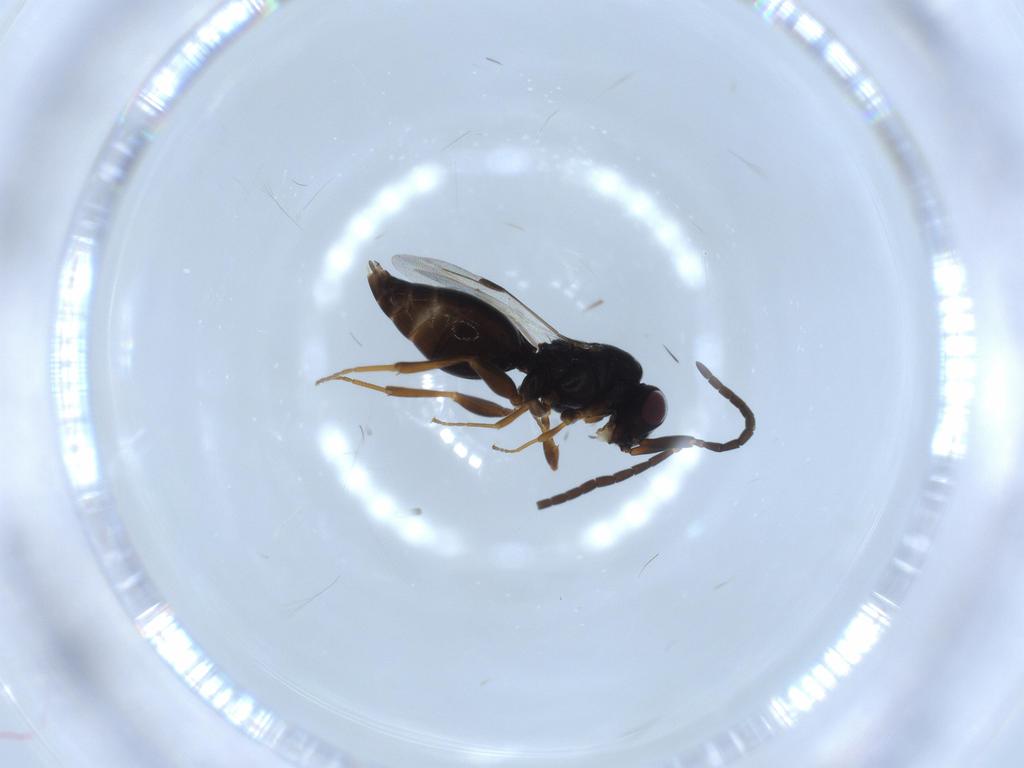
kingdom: Animalia
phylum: Arthropoda
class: Insecta
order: Hymenoptera
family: Ichneumonidae
